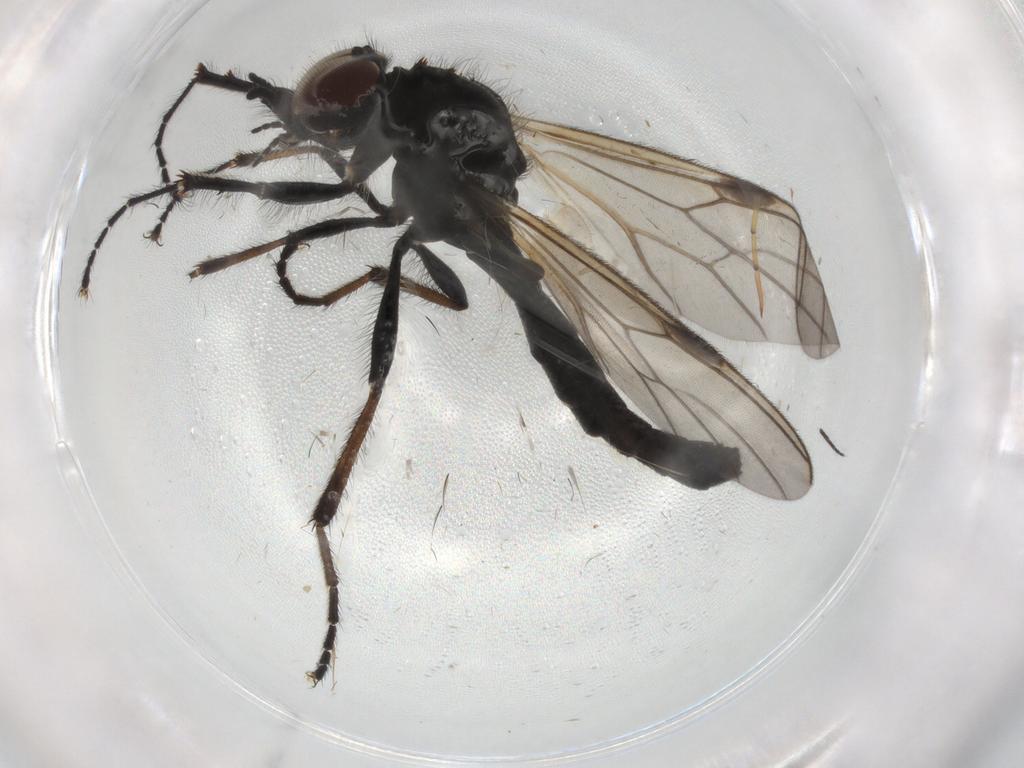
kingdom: Animalia
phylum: Arthropoda
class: Insecta
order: Diptera
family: Bibionidae
